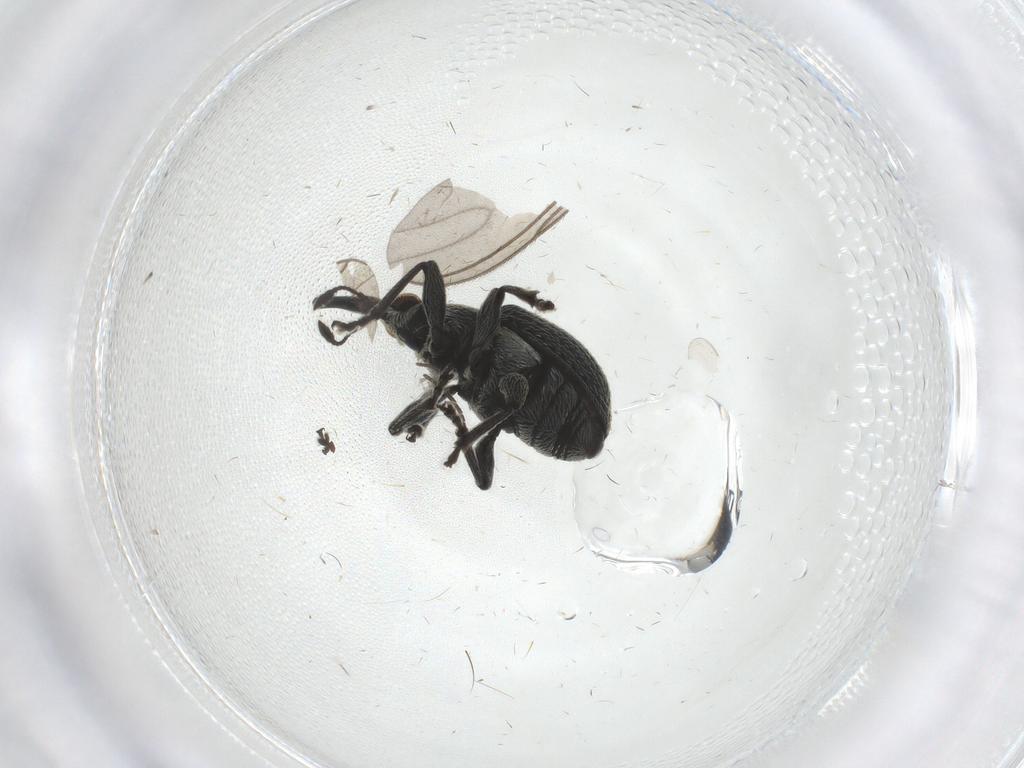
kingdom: Animalia
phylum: Arthropoda
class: Insecta
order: Coleoptera
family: Brentidae
